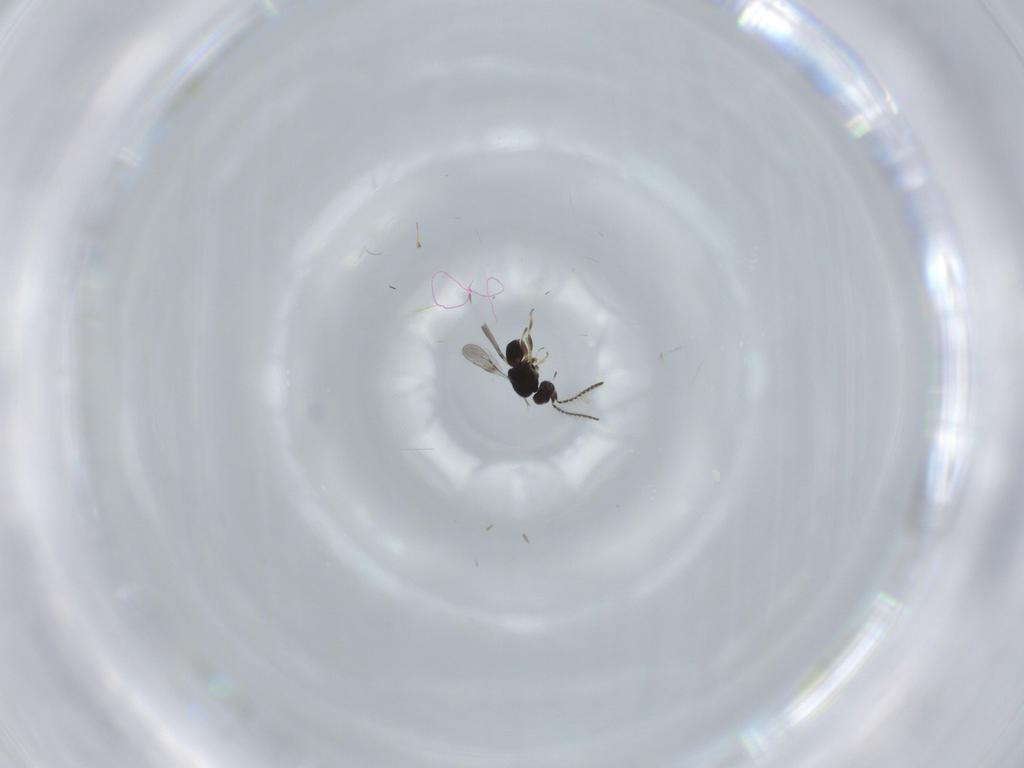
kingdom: Animalia
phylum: Arthropoda
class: Insecta
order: Hymenoptera
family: Ceraphronidae
